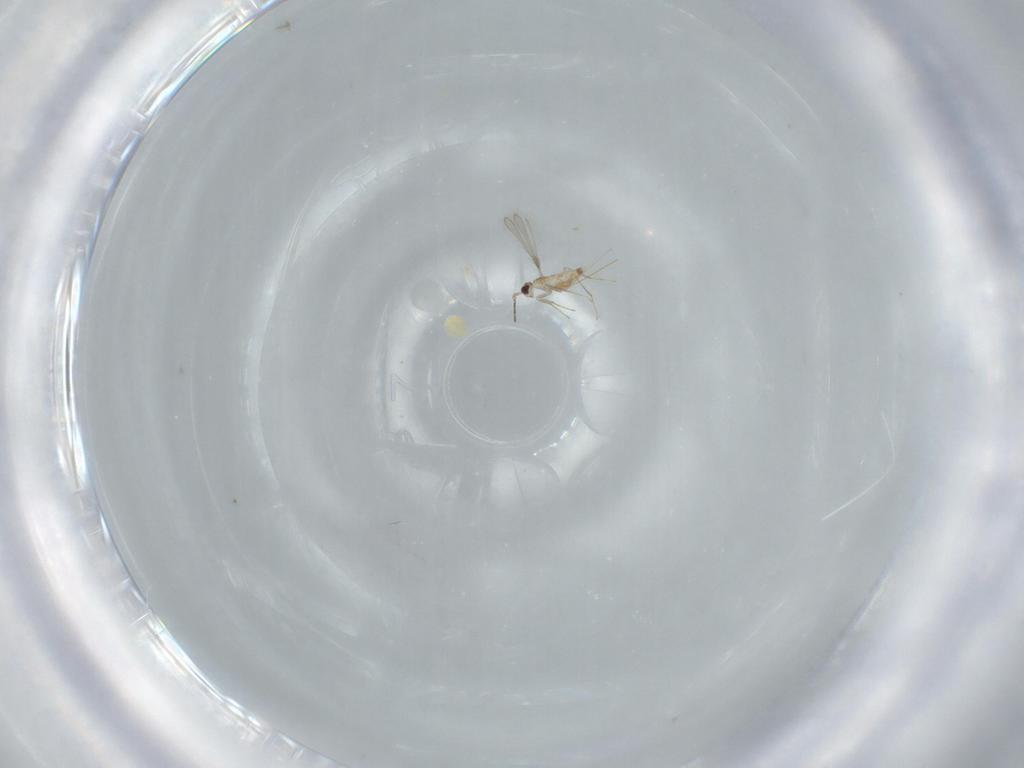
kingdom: Animalia
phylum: Arthropoda
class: Insecta
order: Hymenoptera
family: Mymaridae
